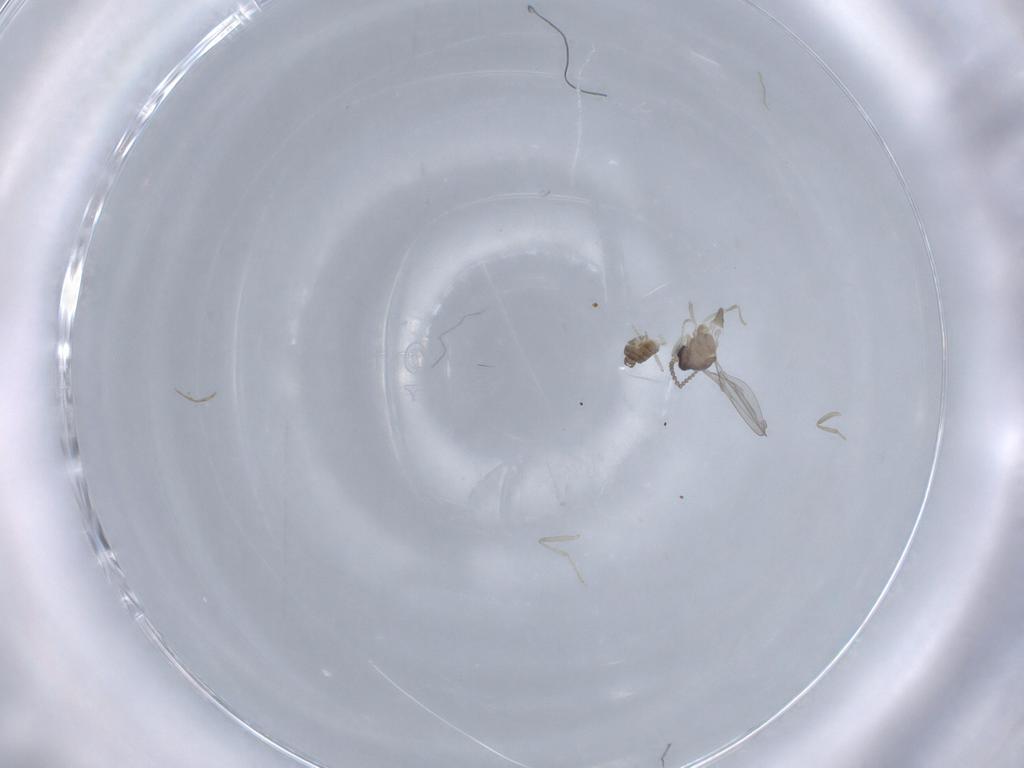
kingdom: Animalia
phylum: Arthropoda
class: Insecta
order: Diptera
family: Cecidomyiidae
